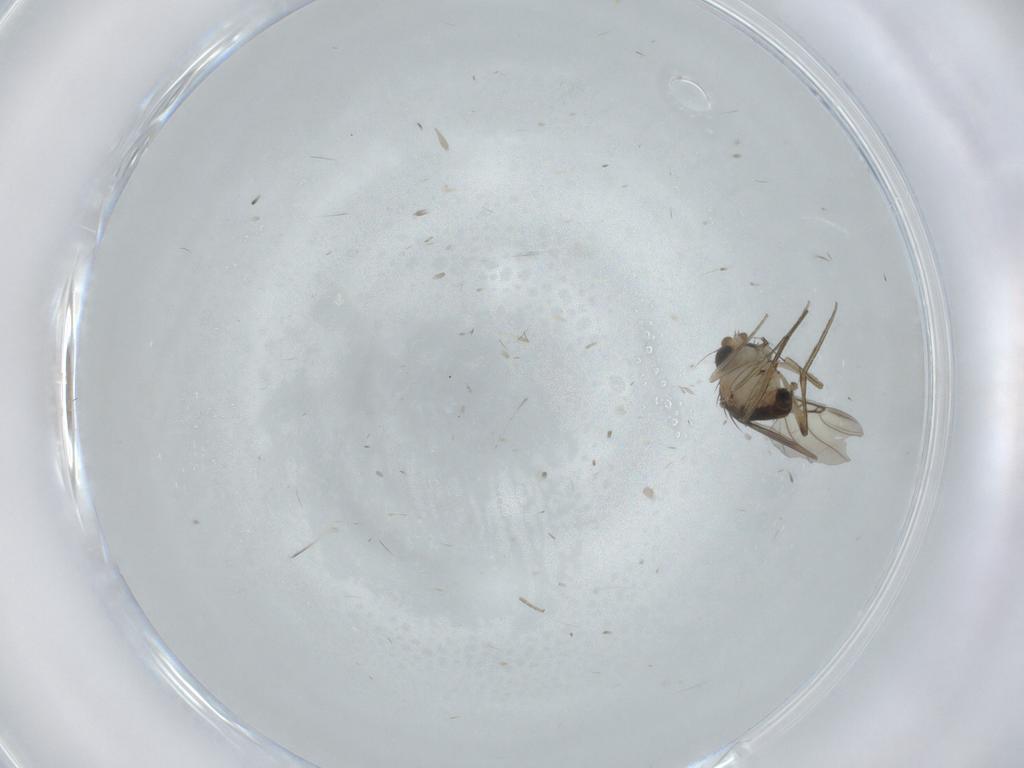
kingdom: Animalia
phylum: Arthropoda
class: Insecta
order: Diptera
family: Phoridae
